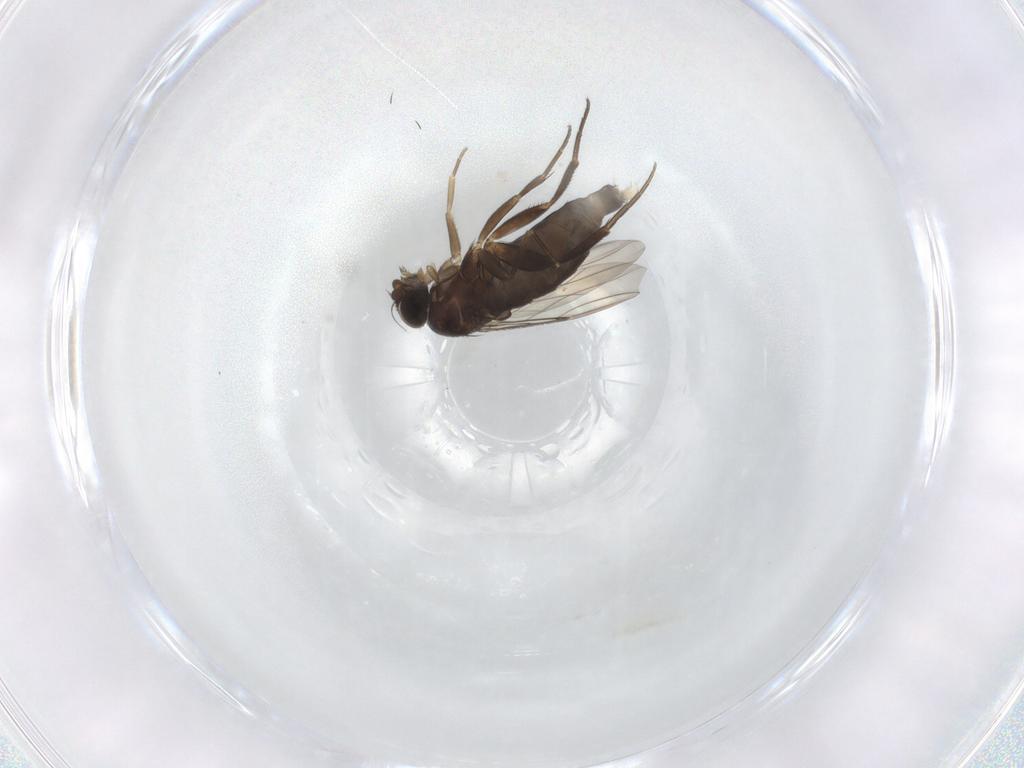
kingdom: Animalia
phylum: Arthropoda
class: Insecta
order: Diptera
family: Phoridae
